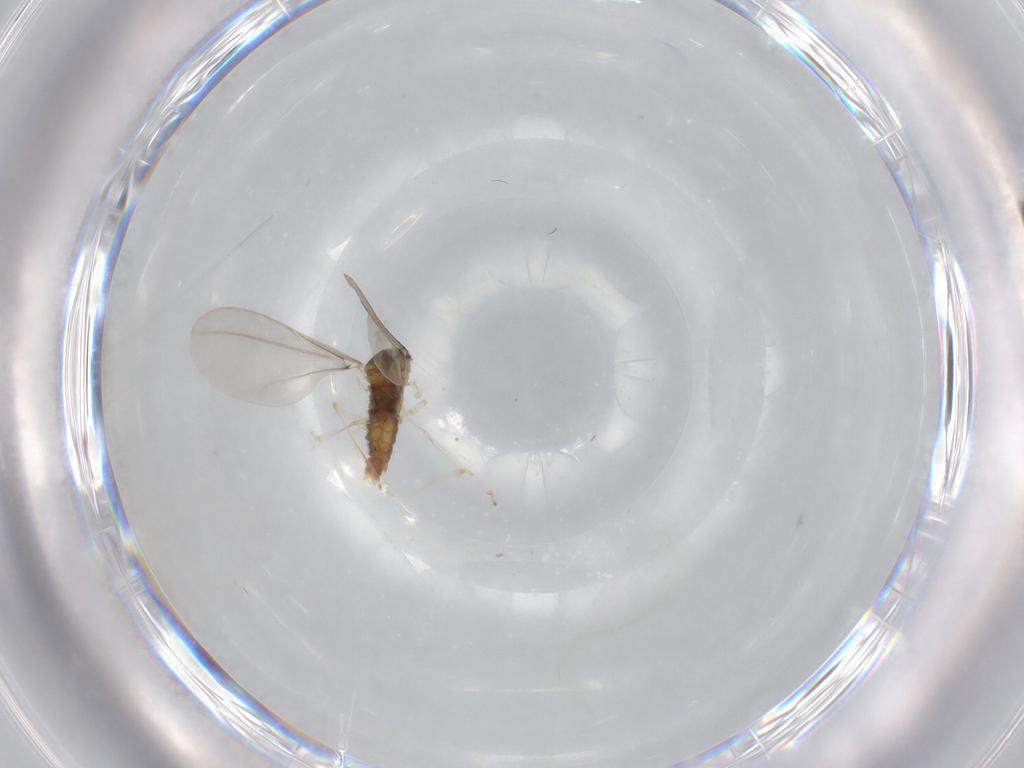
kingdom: Animalia
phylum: Arthropoda
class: Insecta
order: Diptera
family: Cecidomyiidae
